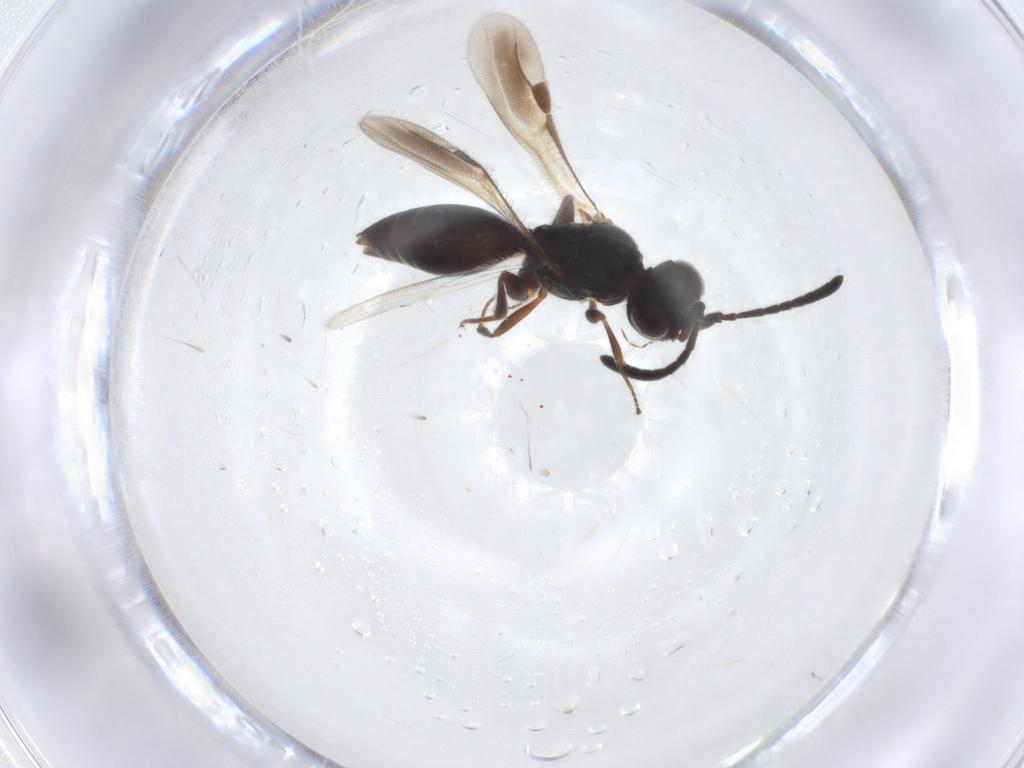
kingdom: Animalia
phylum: Arthropoda
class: Insecta
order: Hymenoptera
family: Megaspilidae
